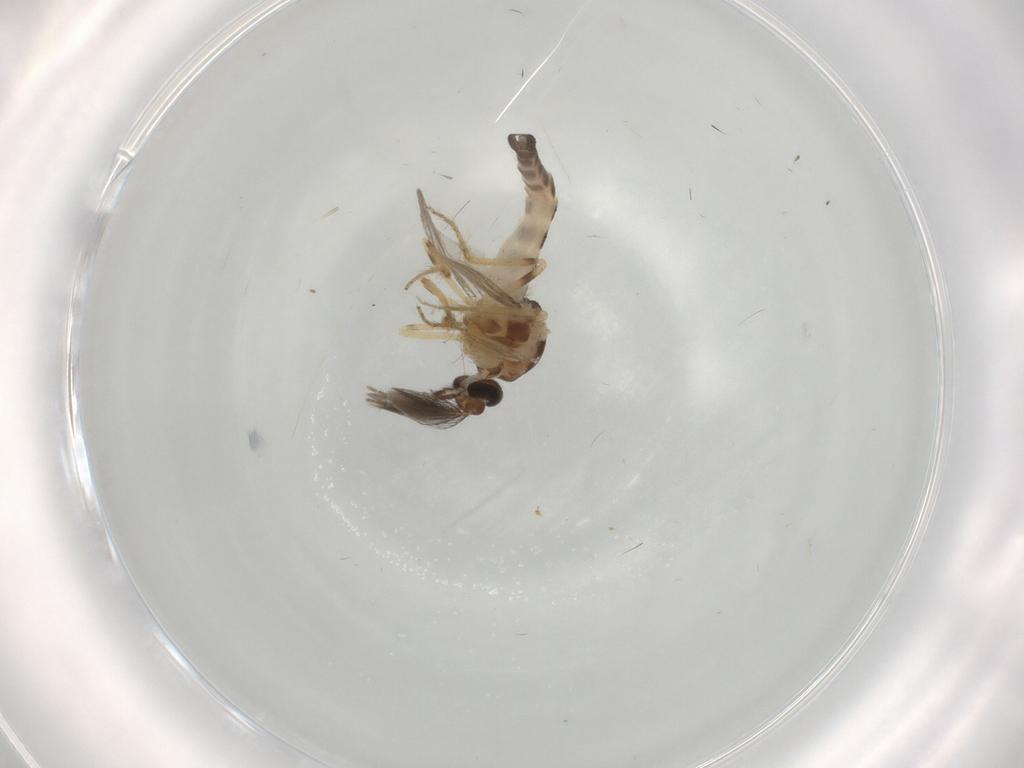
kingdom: Animalia
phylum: Arthropoda
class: Insecta
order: Diptera
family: Ceratopogonidae
